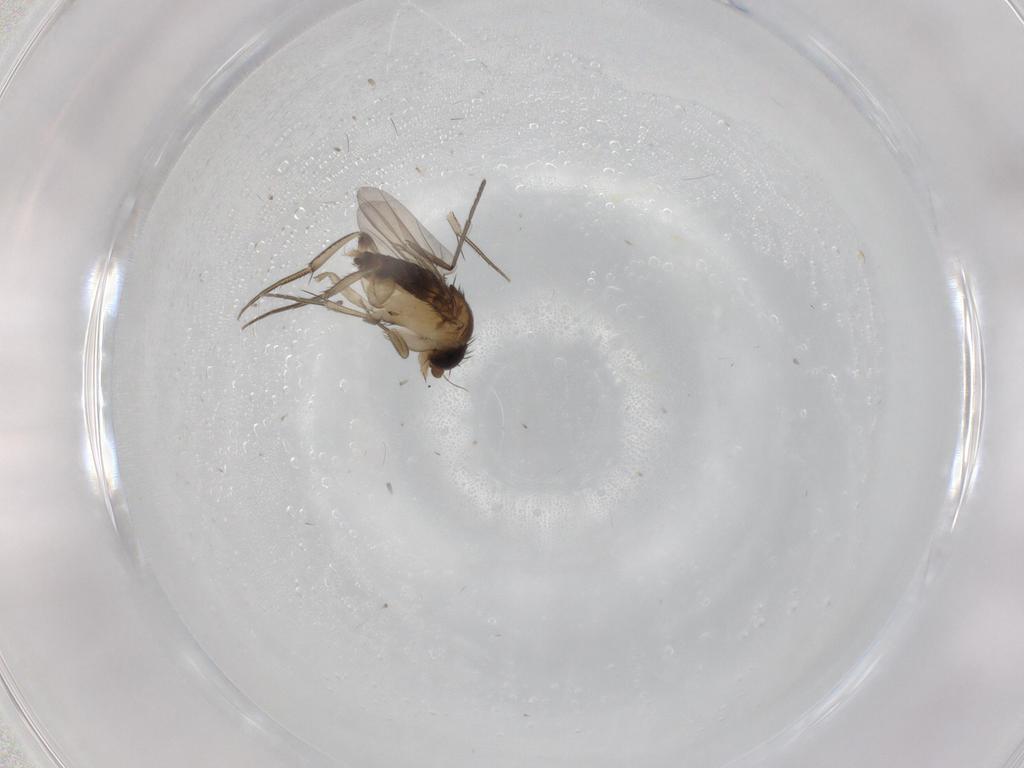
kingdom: Animalia
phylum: Arthropoda
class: Insecta
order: Diptera
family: Phoridae
